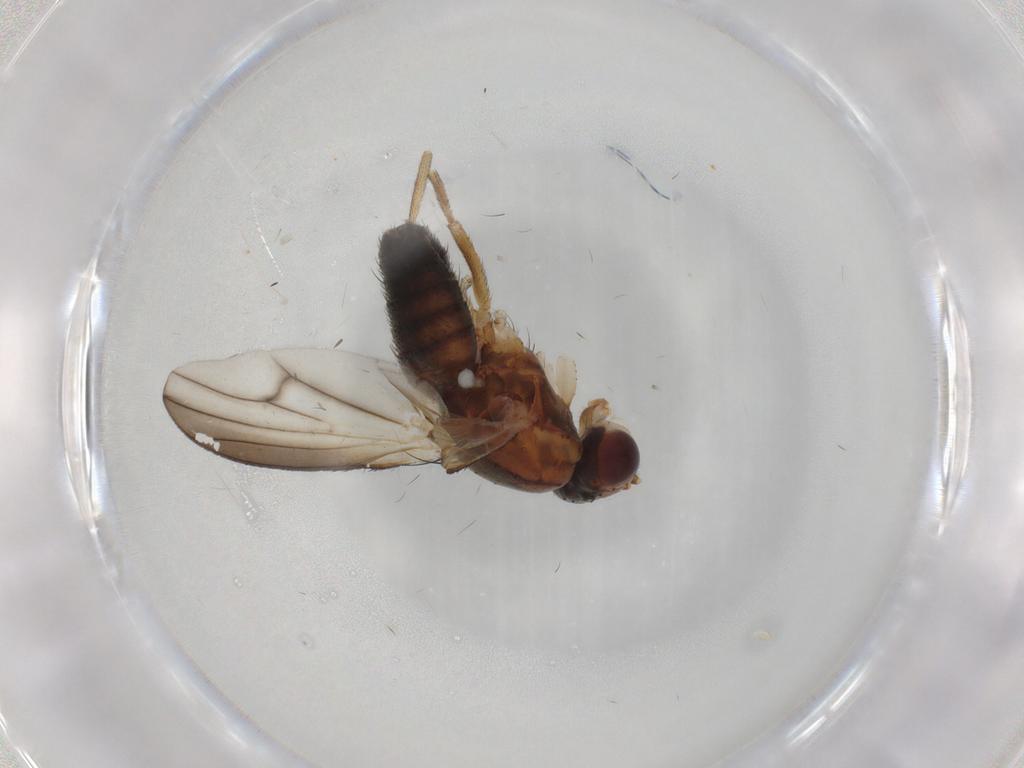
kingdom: Animalia
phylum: Arthropoda
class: Insecta
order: Diptera
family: Heleomyzidae
